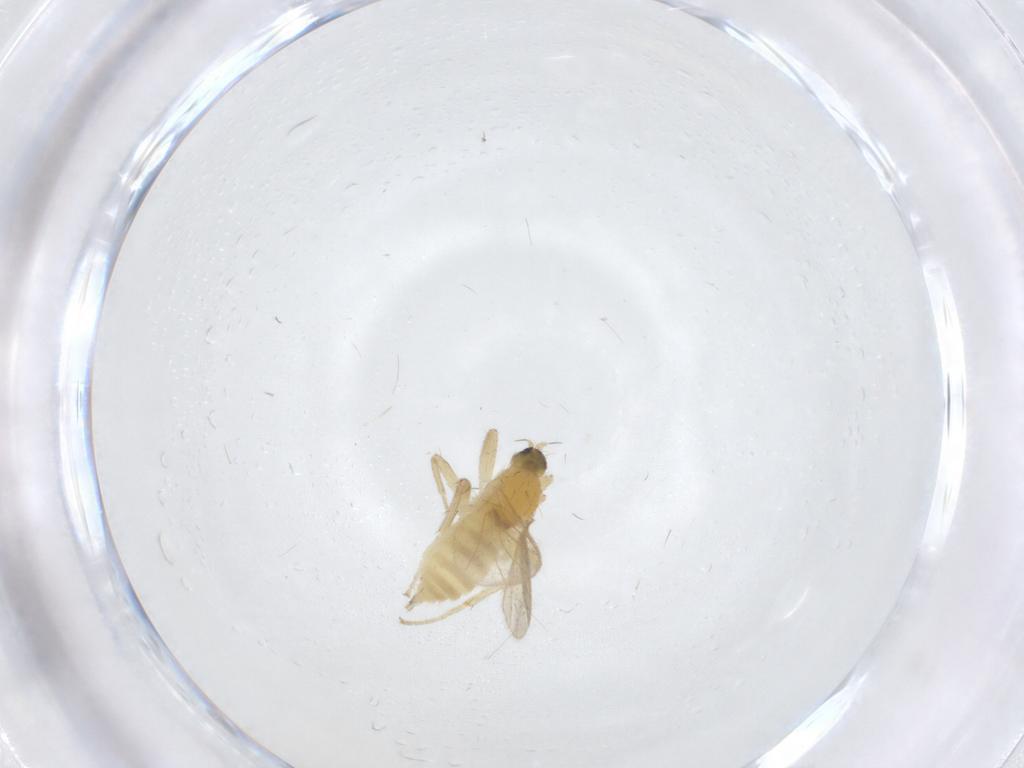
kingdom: Animalia
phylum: Arthropoda
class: Insecta
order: Diptera
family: Hybotidae
